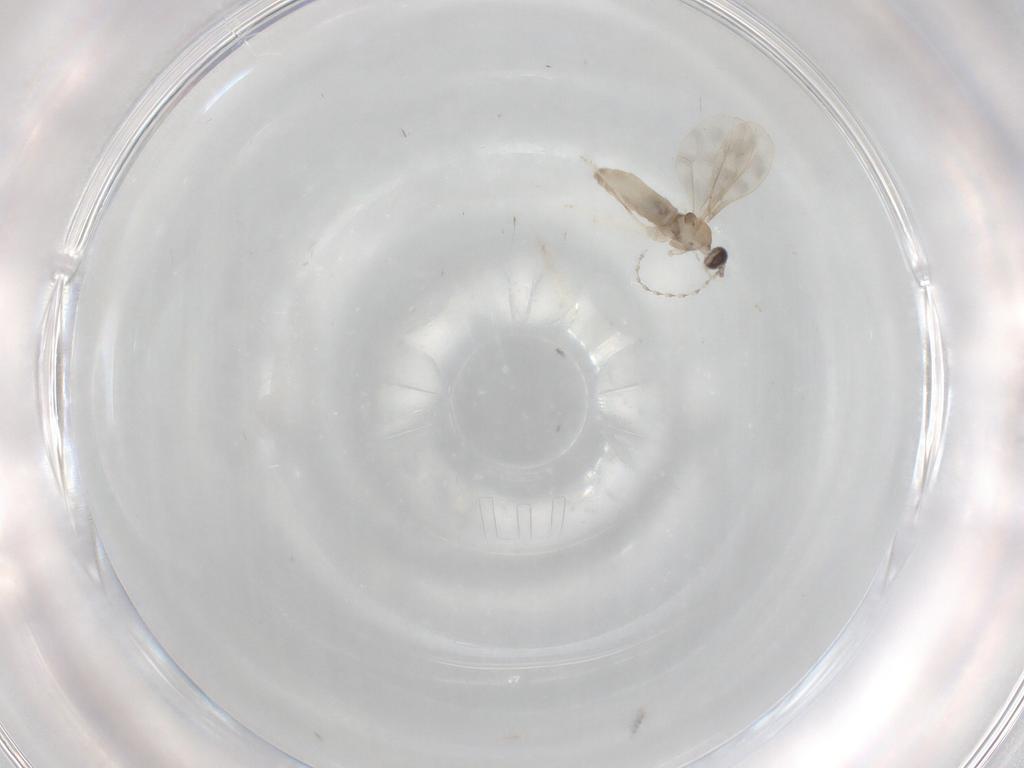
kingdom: Animalia
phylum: Arthropoda
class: Insecta
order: Diptera
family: Cecidomyiidae
